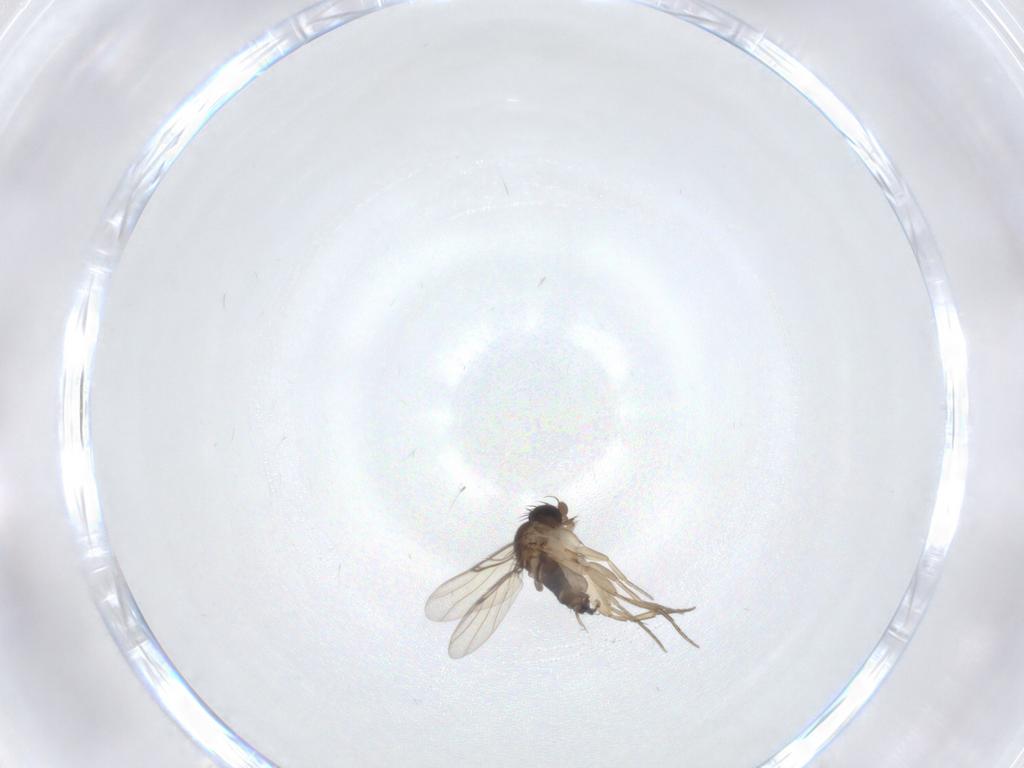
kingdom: Animalia
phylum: Arthropoda
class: Insecta
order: Diptera
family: Phoridae
